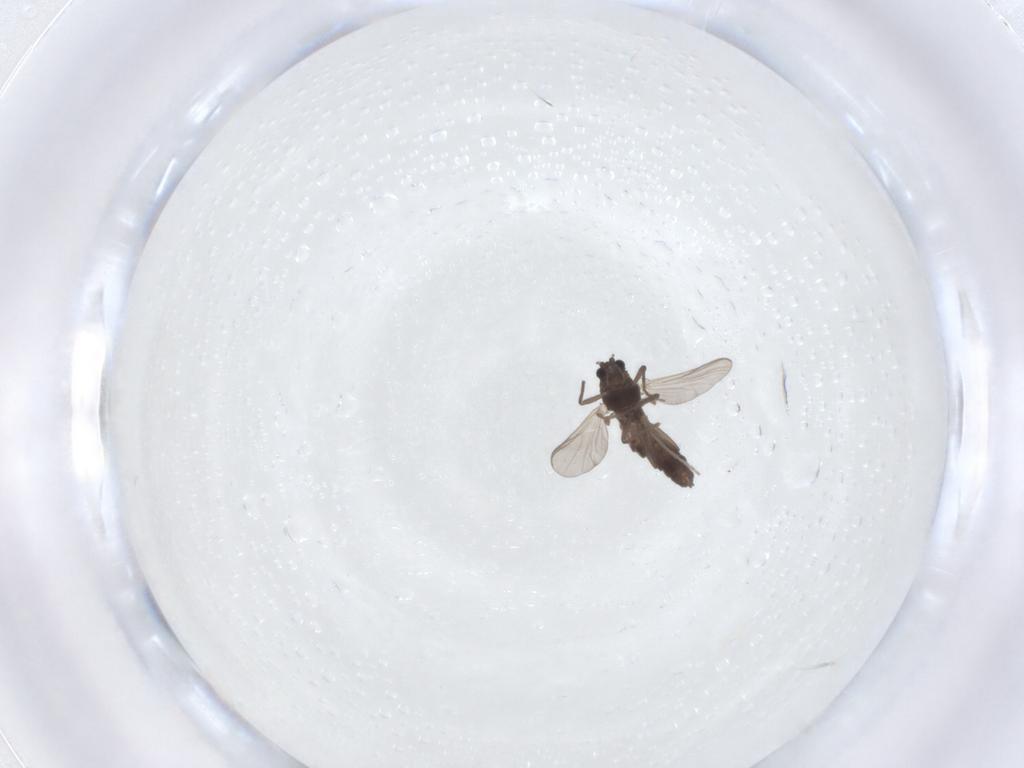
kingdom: Animalia
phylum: Arthropoda
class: Insecta
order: Diptera
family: Chironomidae
